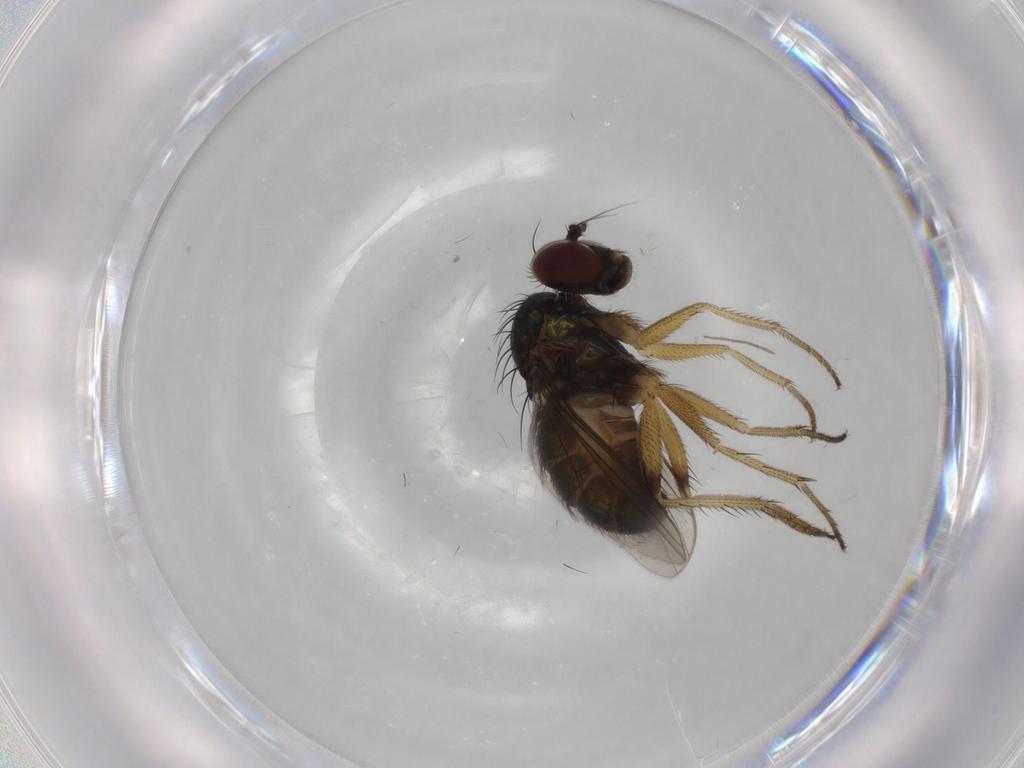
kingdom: Animalia
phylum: Arthropoda
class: Insecta
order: Diptera
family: Dolichopodidae
